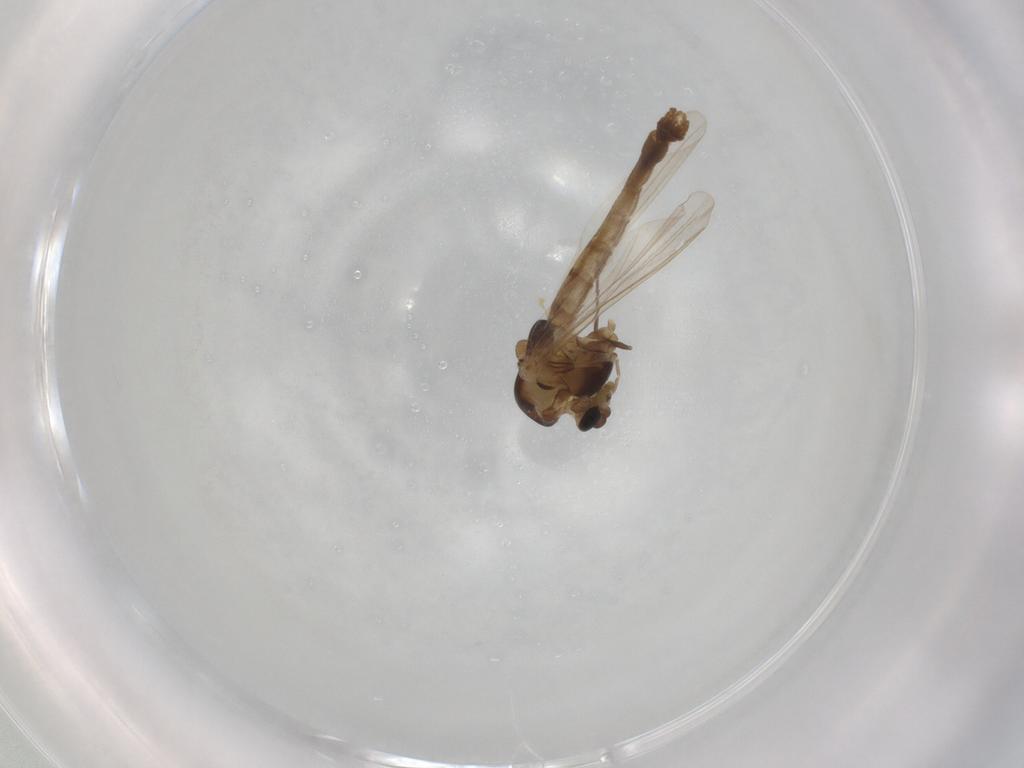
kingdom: Animalia
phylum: Arthropoda
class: Insecta
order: Diptera
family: Chironomidae
